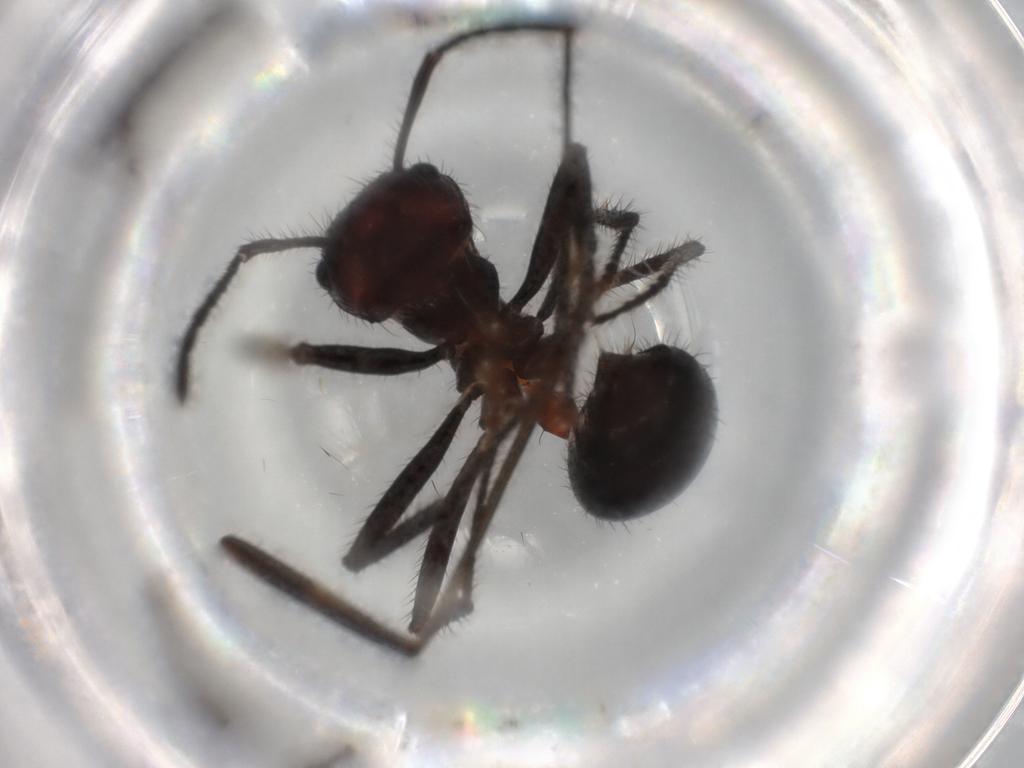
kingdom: Animalia
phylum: Arthropoda
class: Insecta
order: Hymenoptera
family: Formicidae
